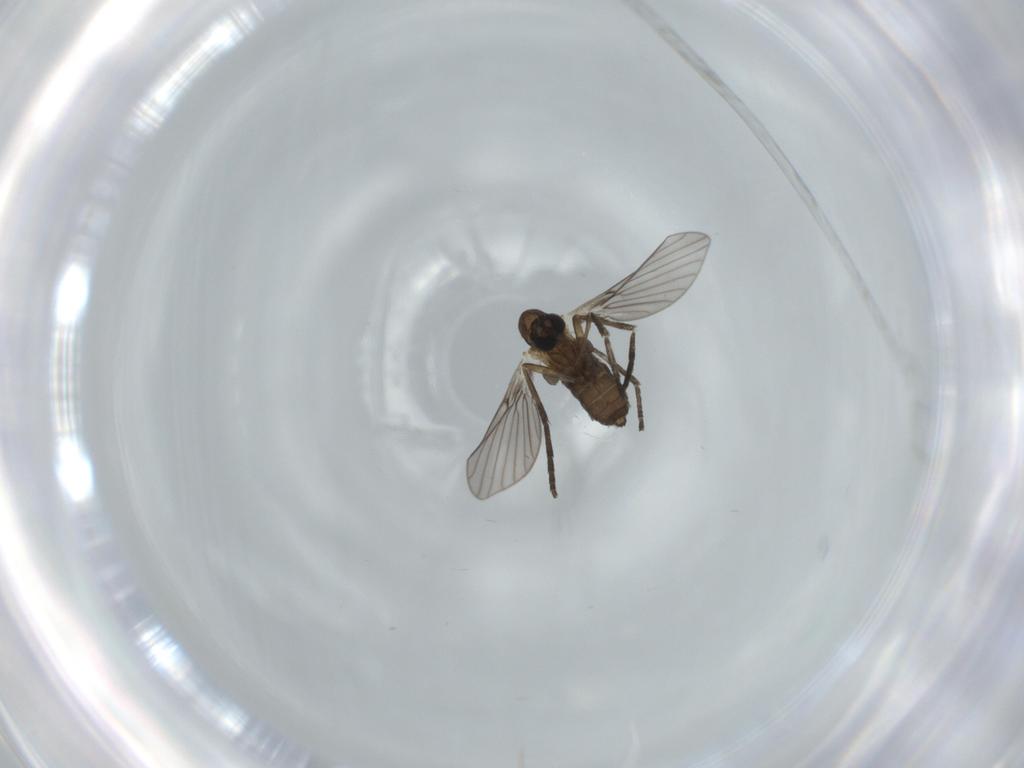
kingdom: Animalia
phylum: Arthropoda
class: Insecta
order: Diptera
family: Psychodidae
